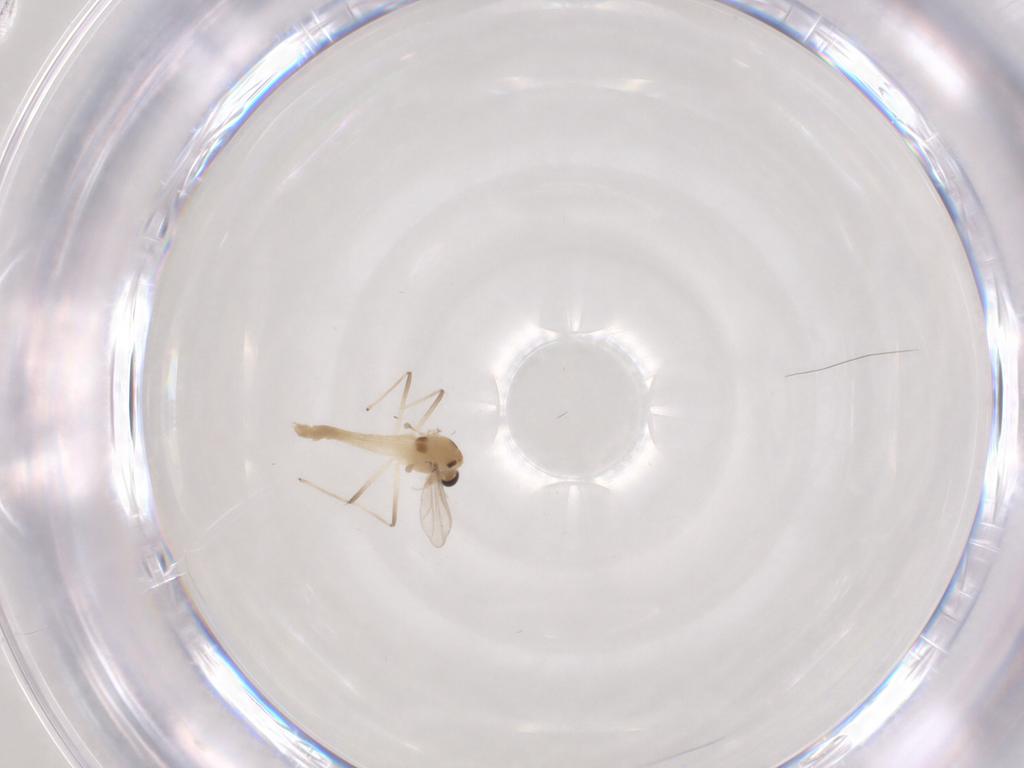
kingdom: Animalia
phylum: Arthropoda
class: Insecta
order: Diptera
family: Chironomidae
